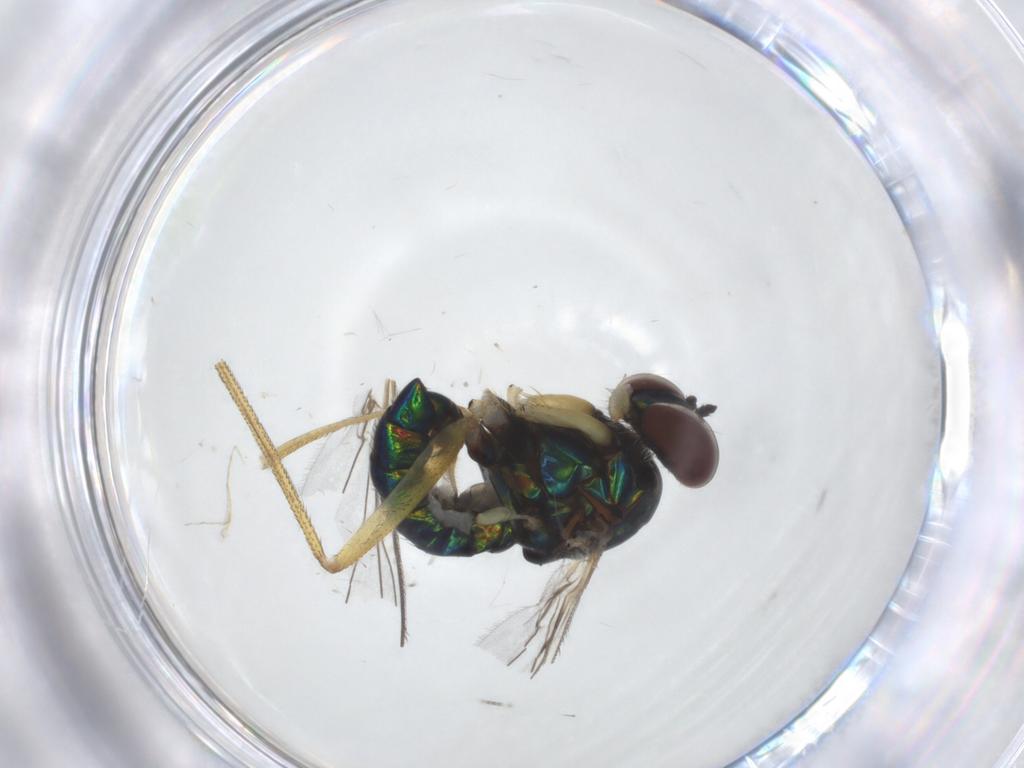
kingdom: Animalia
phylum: Arthropoda
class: Insecta
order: Diptera
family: Dolichopodidae
